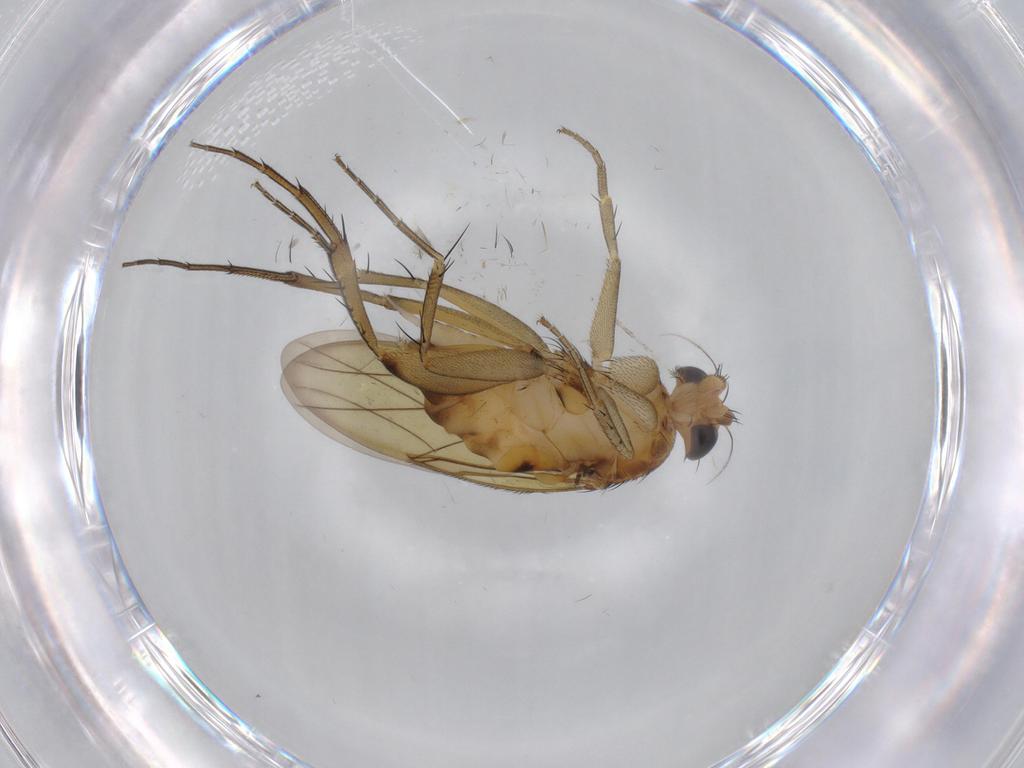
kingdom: Animalia
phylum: Arthropoda
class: Insecta
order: Diptera
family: Phoridae
